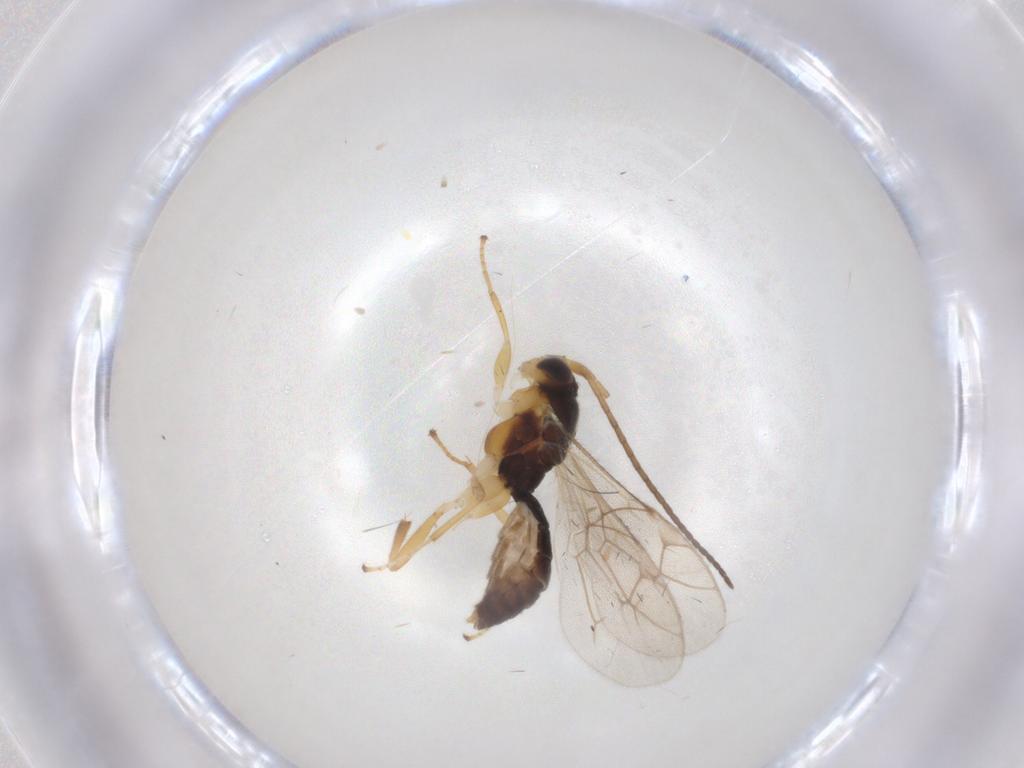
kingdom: Animalia
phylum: Arthropoda
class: Insecta
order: Hymenoptera
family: Ichneumonidae
